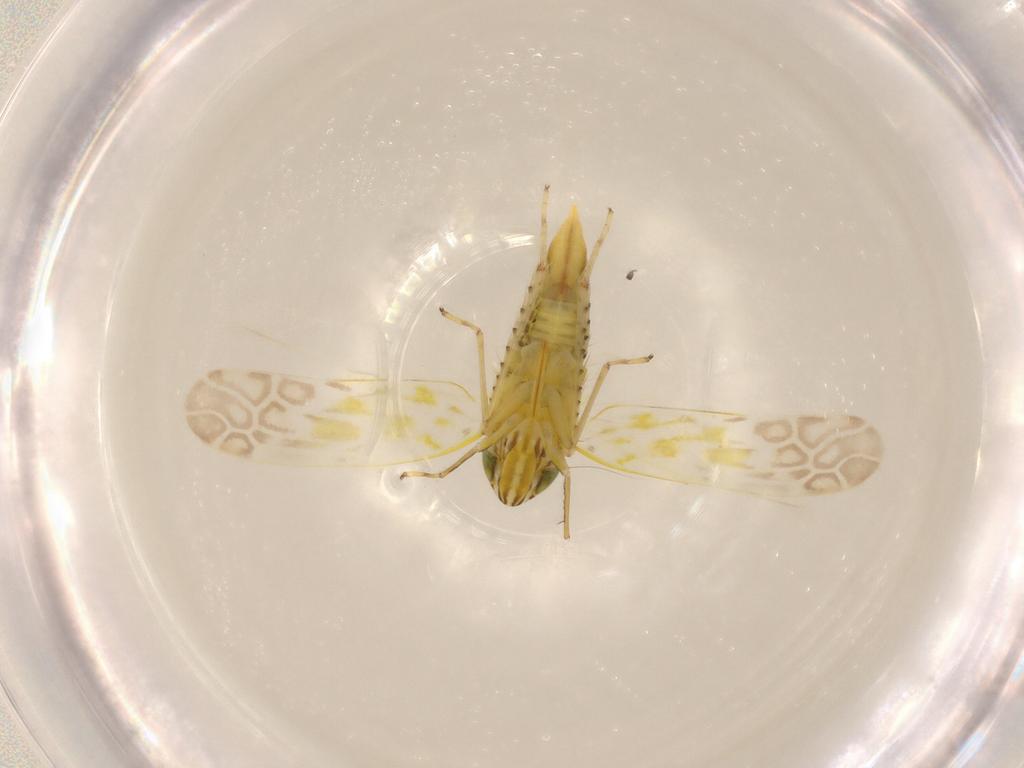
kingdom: Animalia
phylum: Arthropoda
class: Insecta
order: Hemiptera
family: Cicadellidae
